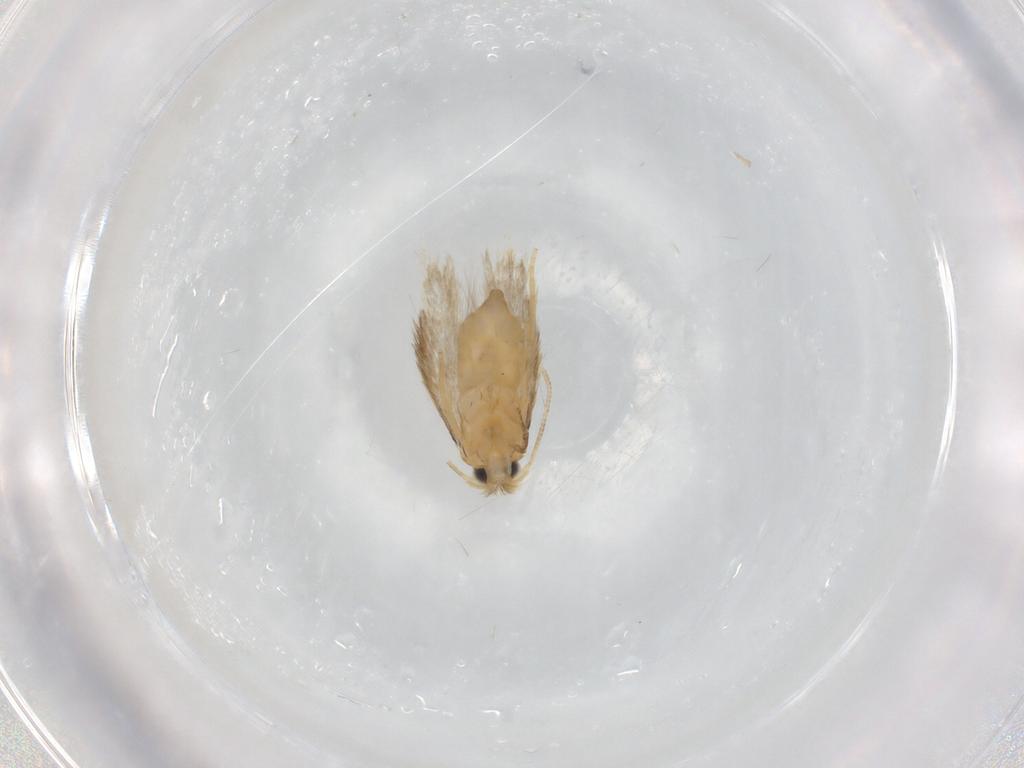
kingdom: Animalia
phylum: Arthropoda
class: Insecta
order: Lepidoptera
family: Nepticulidae
